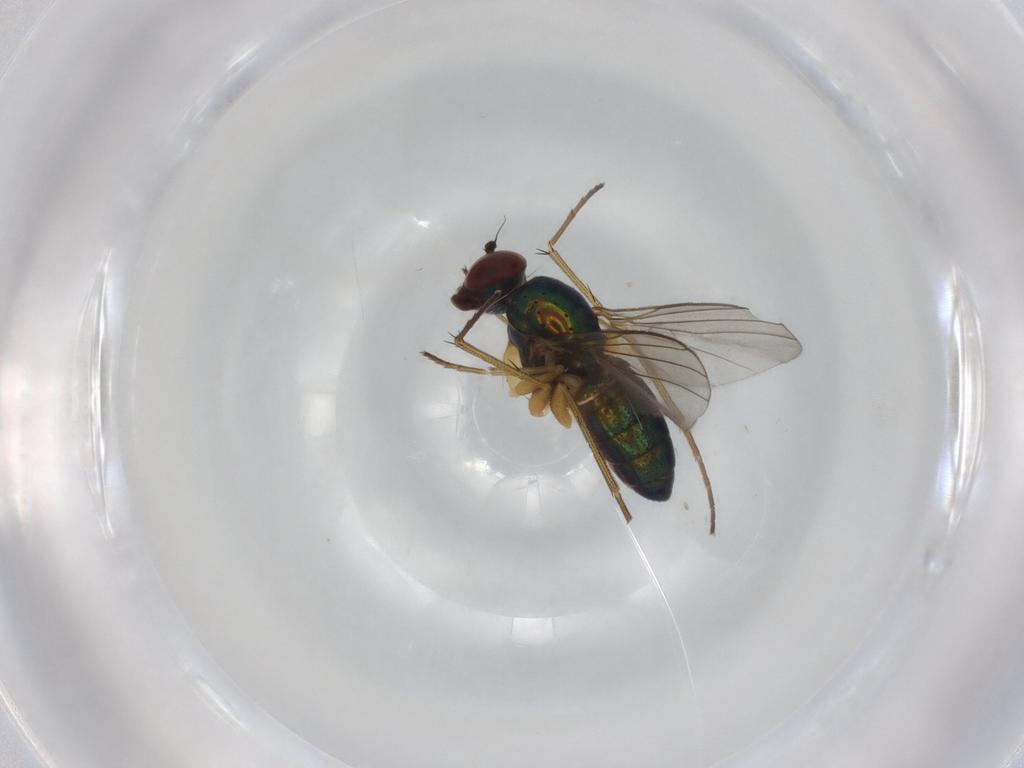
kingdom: Animalia
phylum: Arthropoda
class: Insecta
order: Diptera
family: Dolichopodidae
